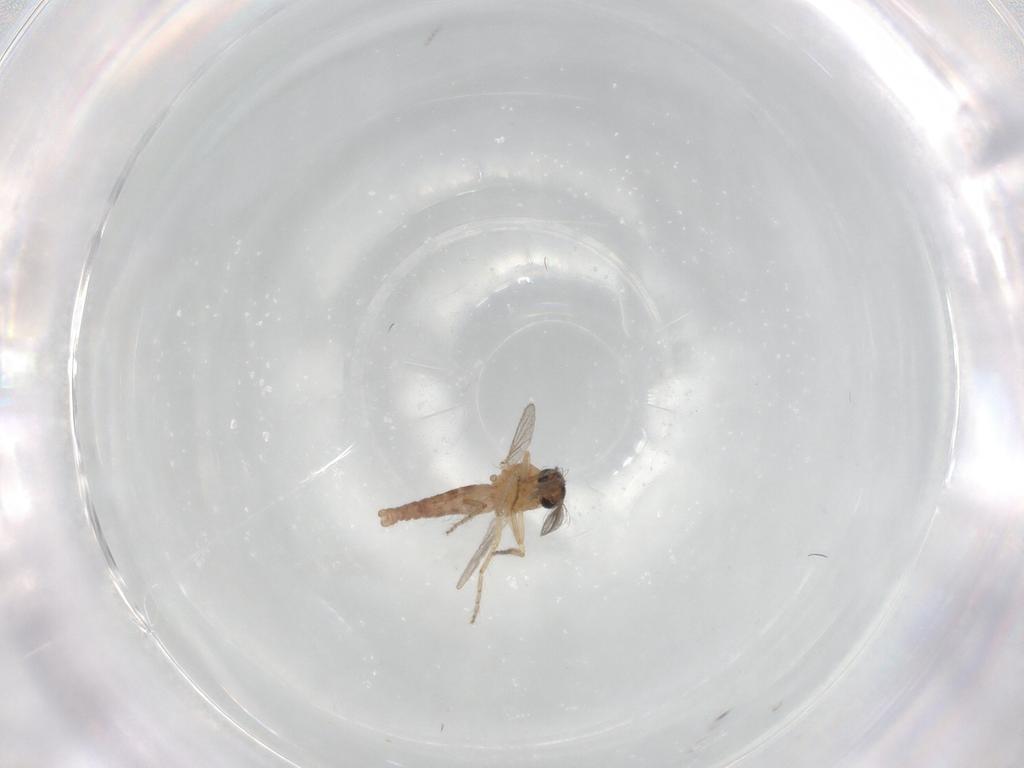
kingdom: Animalia
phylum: Arthropoda
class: Insecta
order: Diptera
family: Ceratopogonidae
